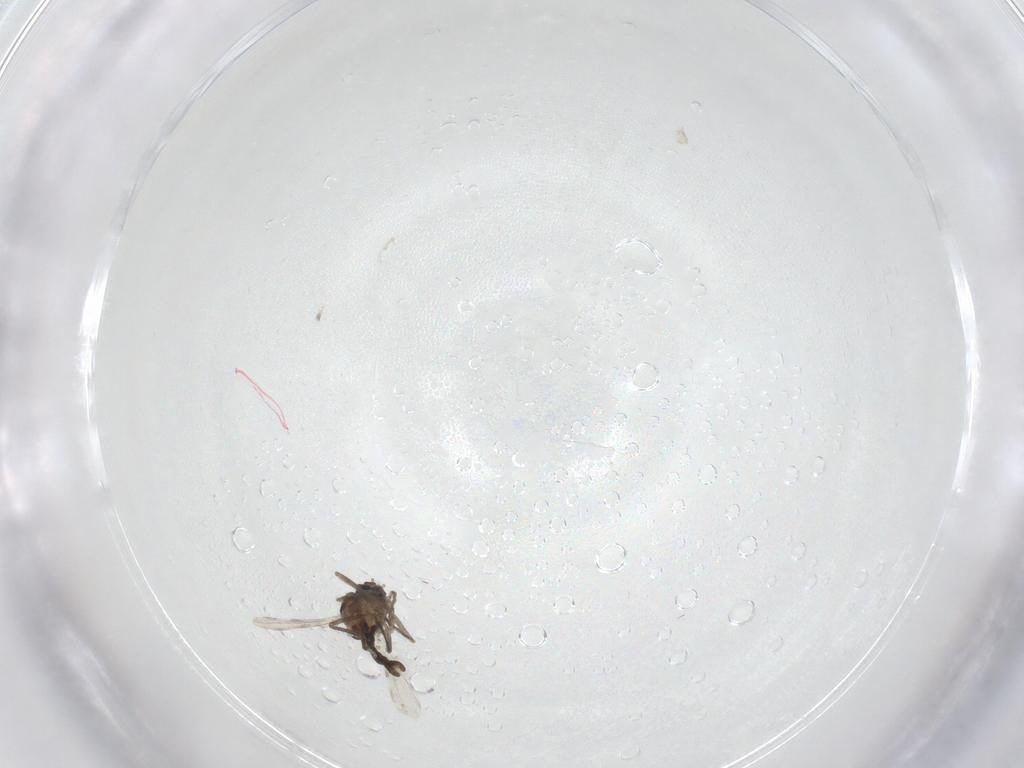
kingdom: Animalia
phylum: Arthropoda
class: Insecta
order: Diptera
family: Ceratopogonidae
